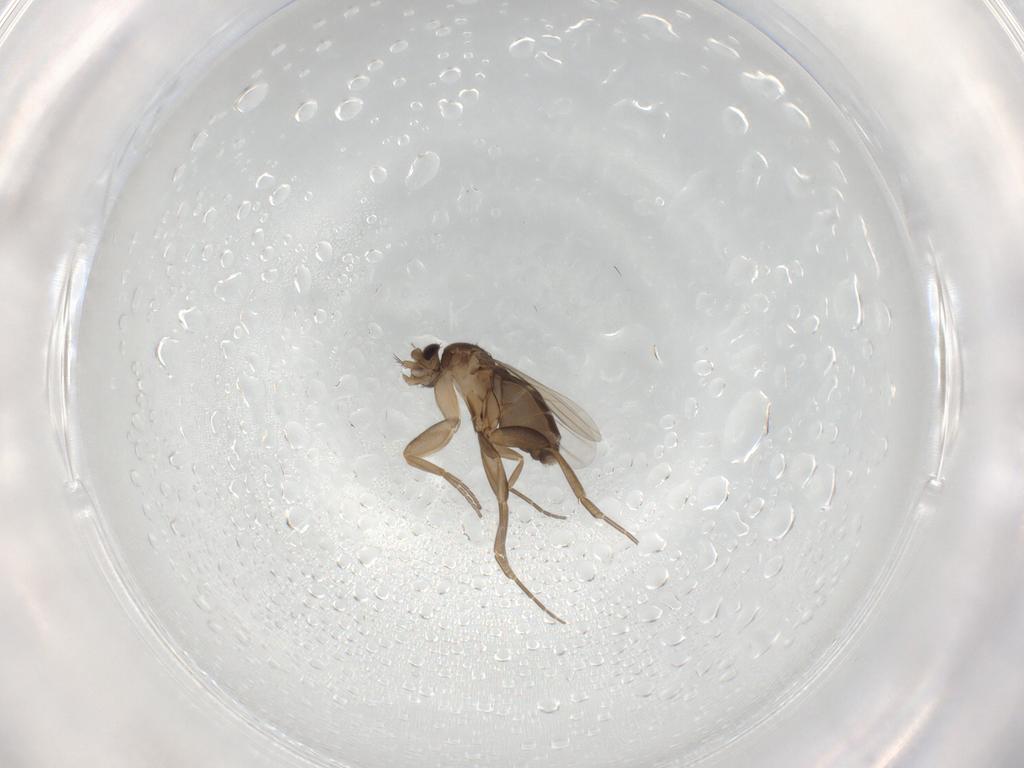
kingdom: Animalia
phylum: Arthropoda
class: Insecta
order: Diptera
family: Phoridae
